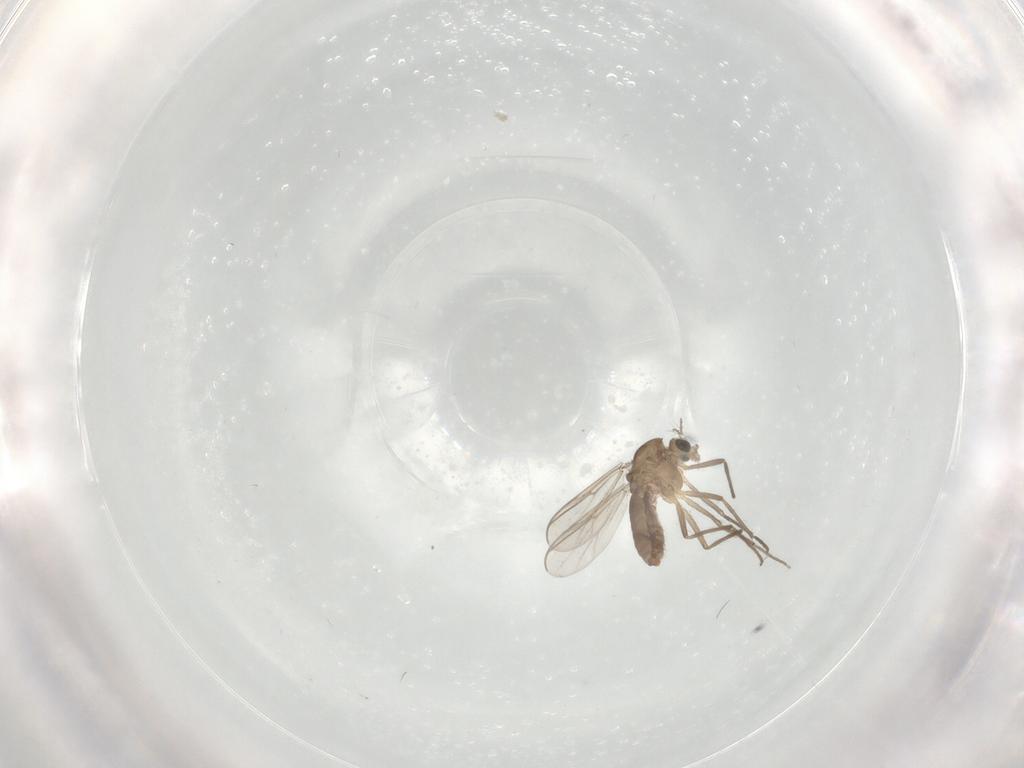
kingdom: Animalia
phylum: Arthropoda
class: Insecta
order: Diptera
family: Chironomidae
